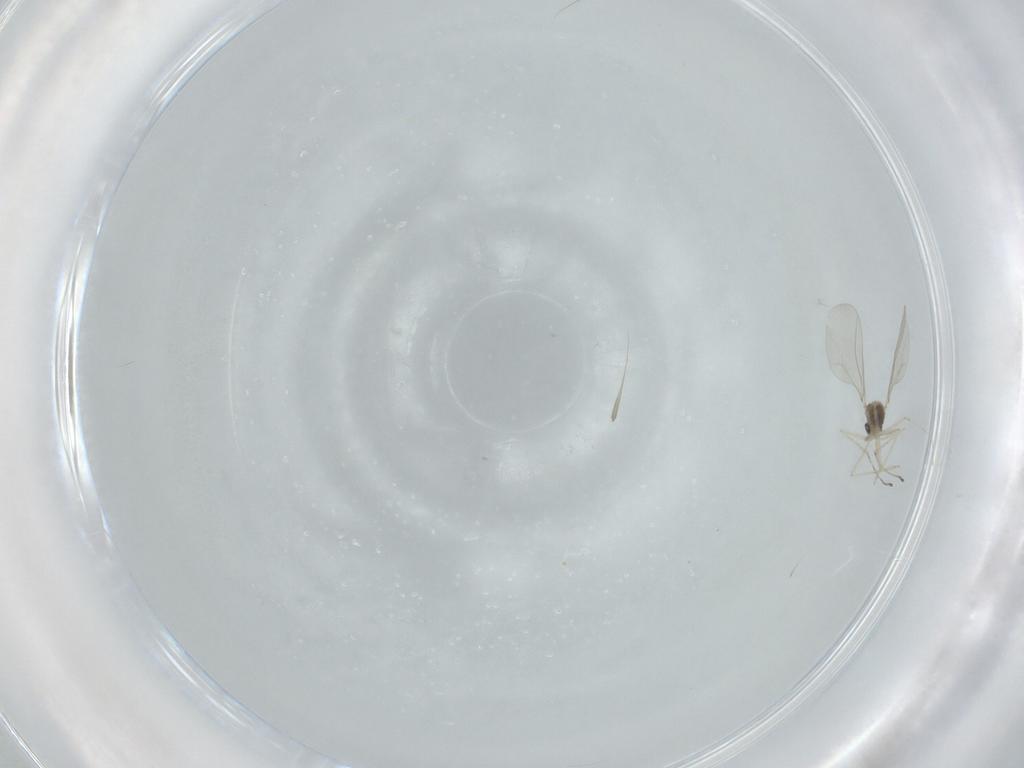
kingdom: Animalia
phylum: Arthropoda
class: Insecta
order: Diptera
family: Cecidomyiidae
